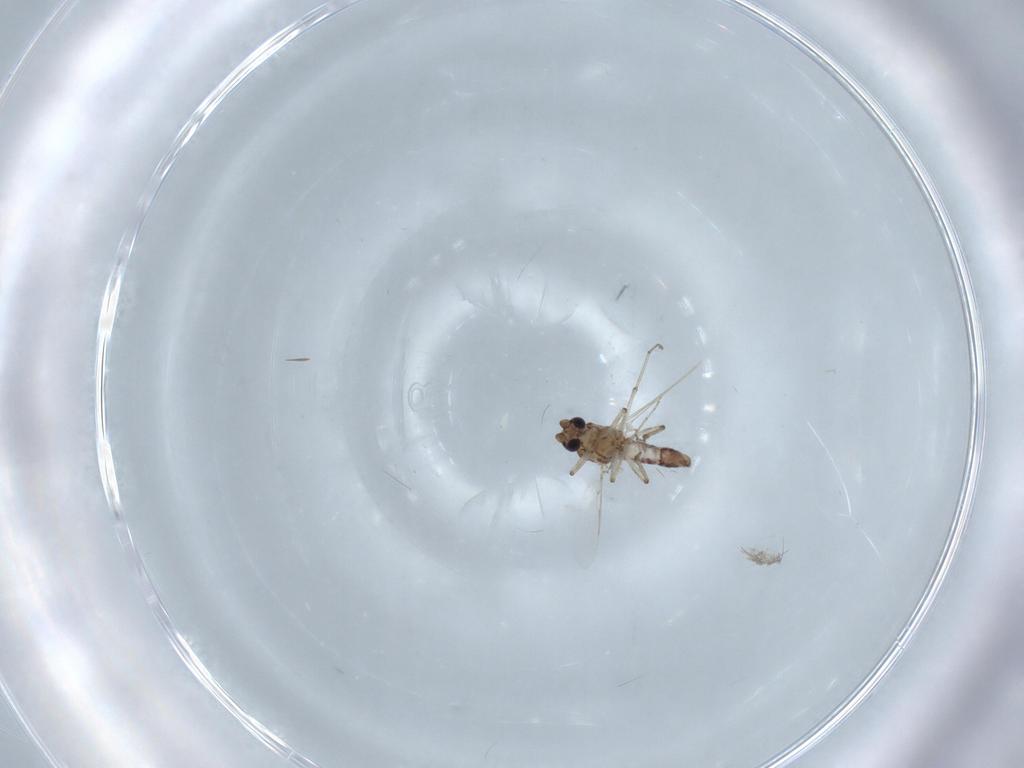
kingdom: Animalia
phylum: Arthropoda
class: Insecta
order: Diptera
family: Ceratopogonidae
